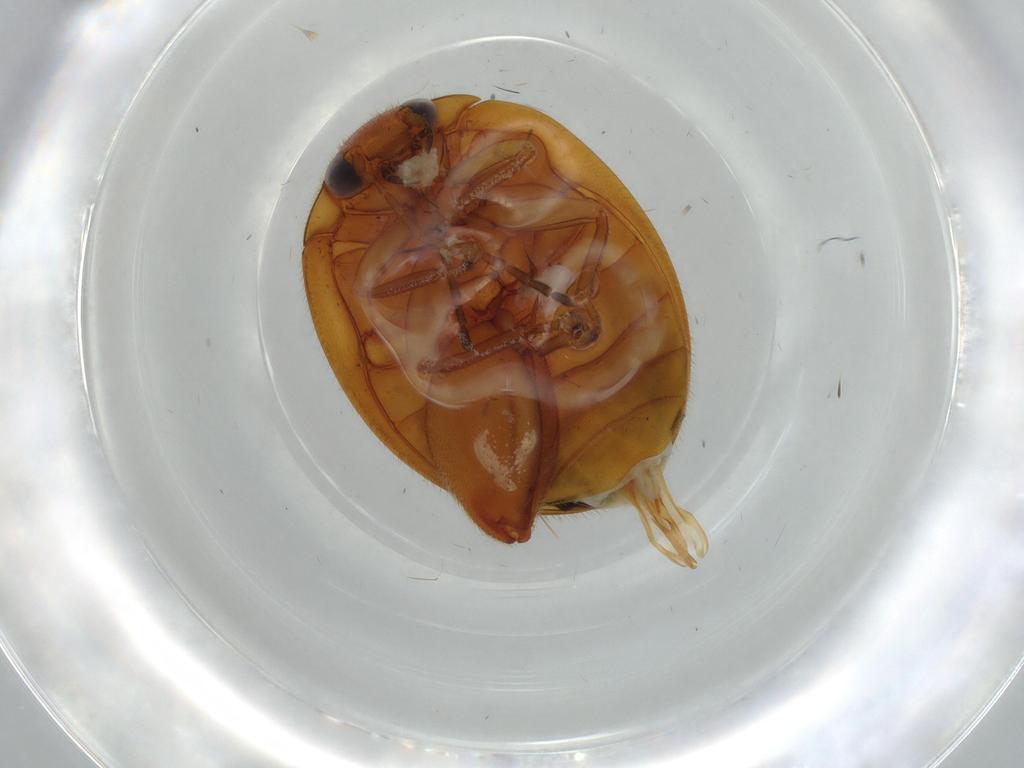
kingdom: Animalia
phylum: Arthropoda
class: Insecta
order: Coleoptera
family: Scirtidae
